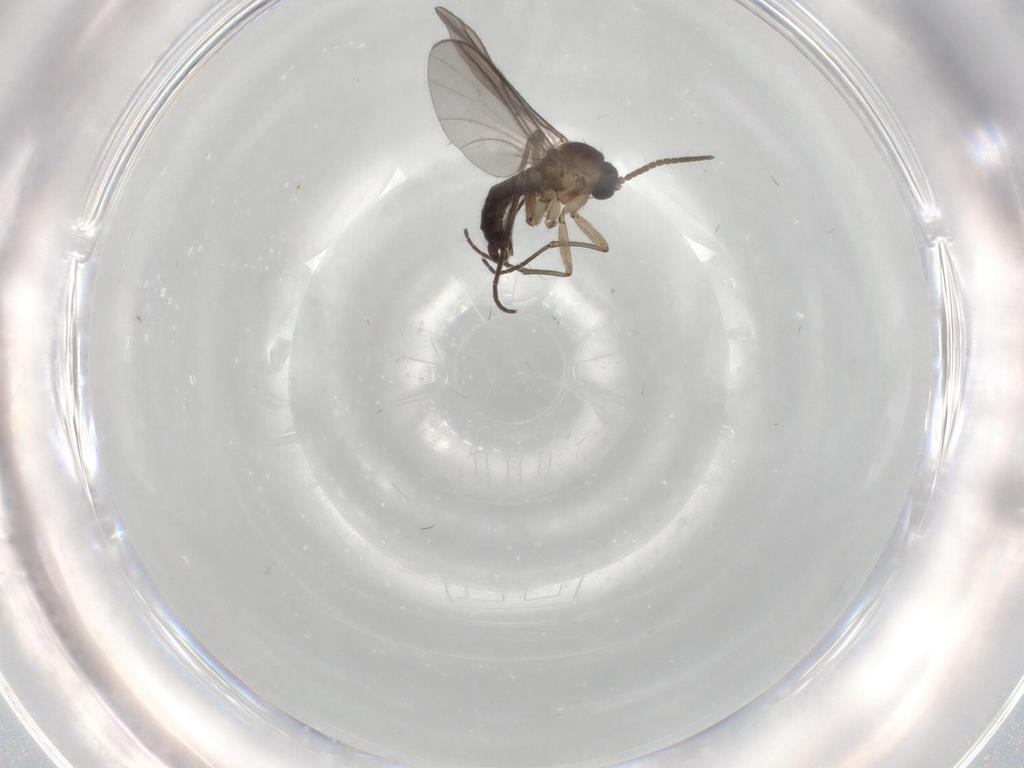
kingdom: Animalia
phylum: Arthropoda
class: Insecta
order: Diptera
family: Sciaridae
